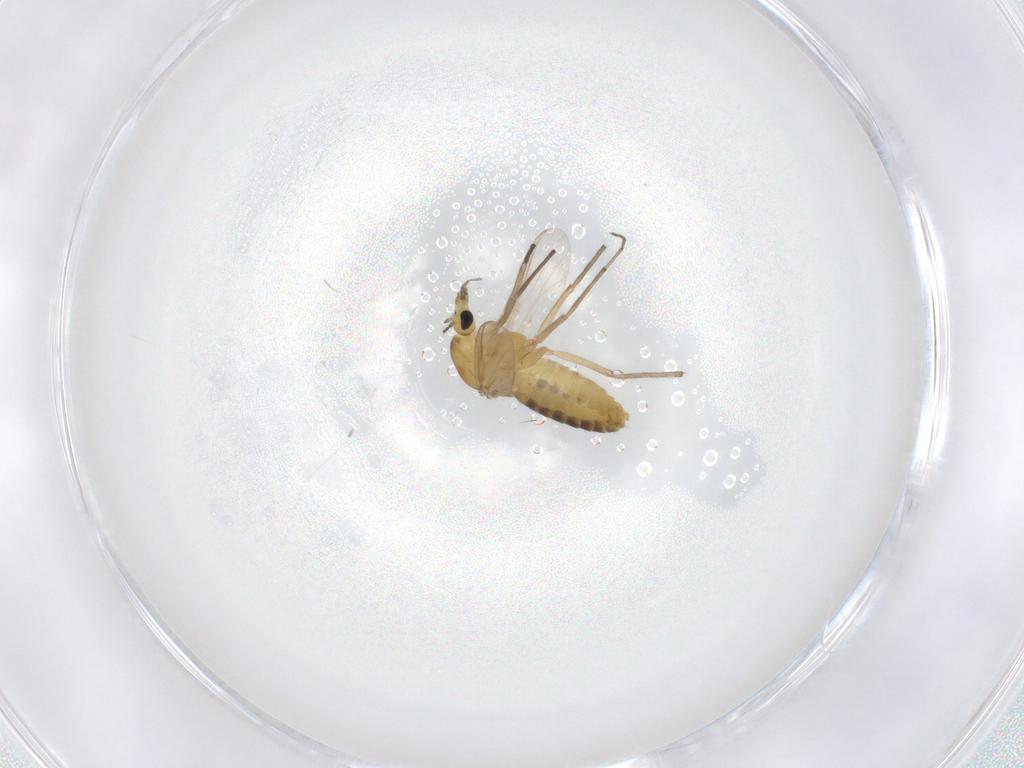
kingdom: Animalia
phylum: Arthropoda
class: Insecta
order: Diptera
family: Chironomidae
